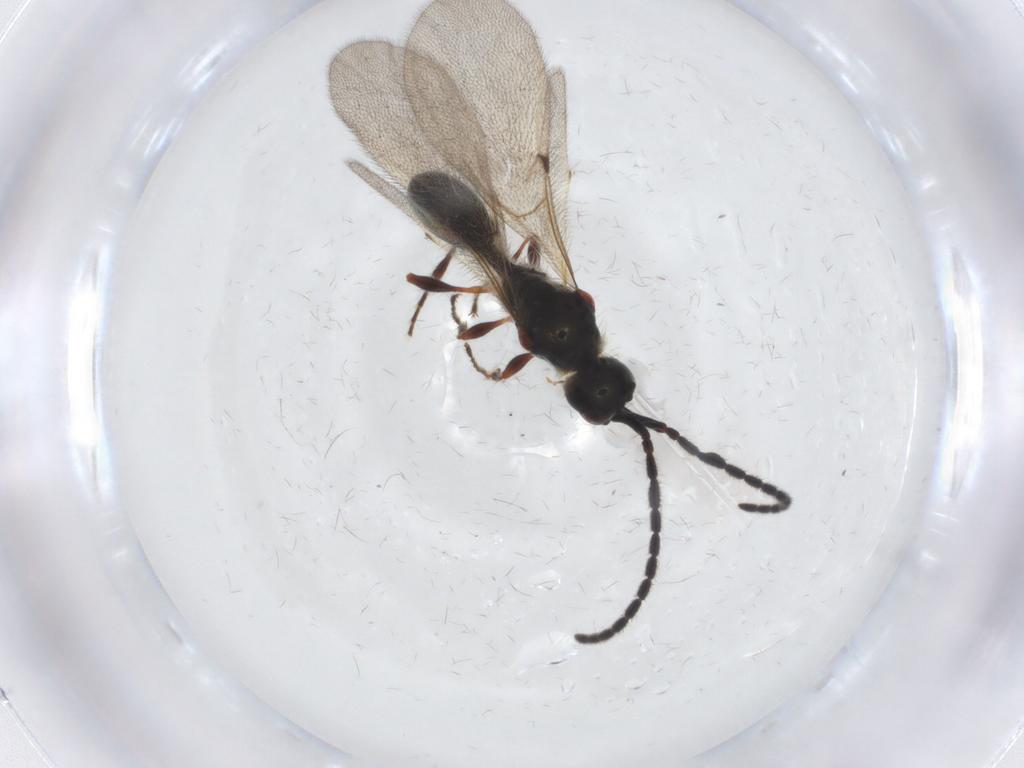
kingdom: Animalia
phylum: Arthropoda
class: Insecta
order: Hymenoptera
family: Diapriidae
